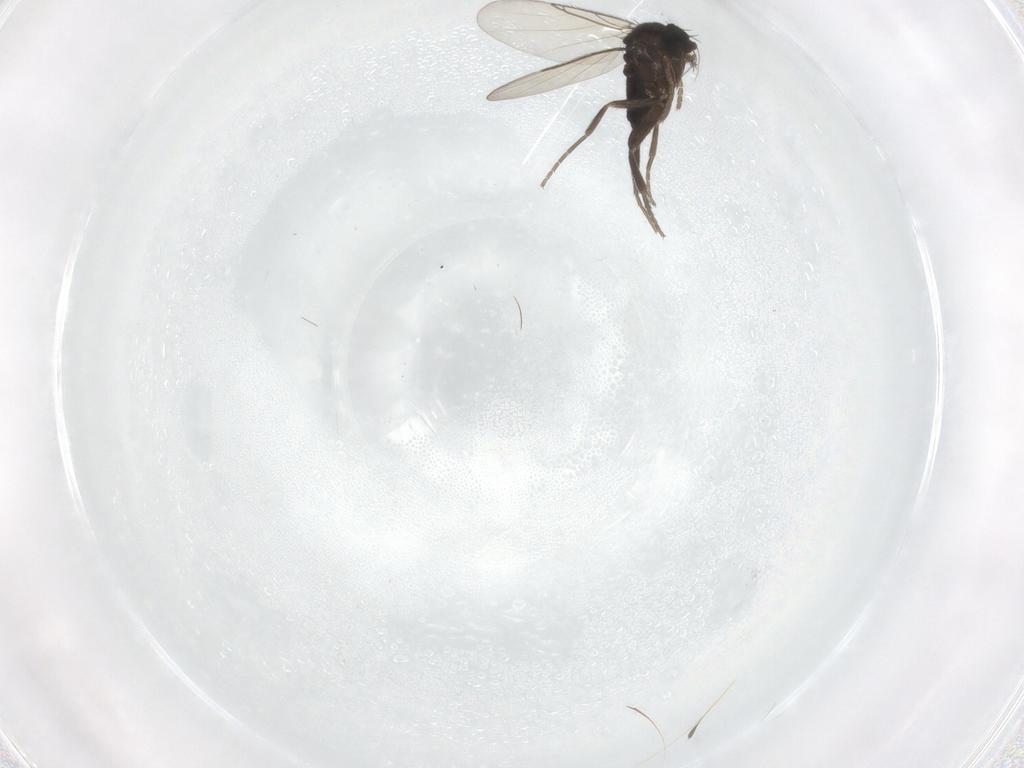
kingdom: Animalia
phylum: Arthropoda
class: Insecta
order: Diptera
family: Phoridae
